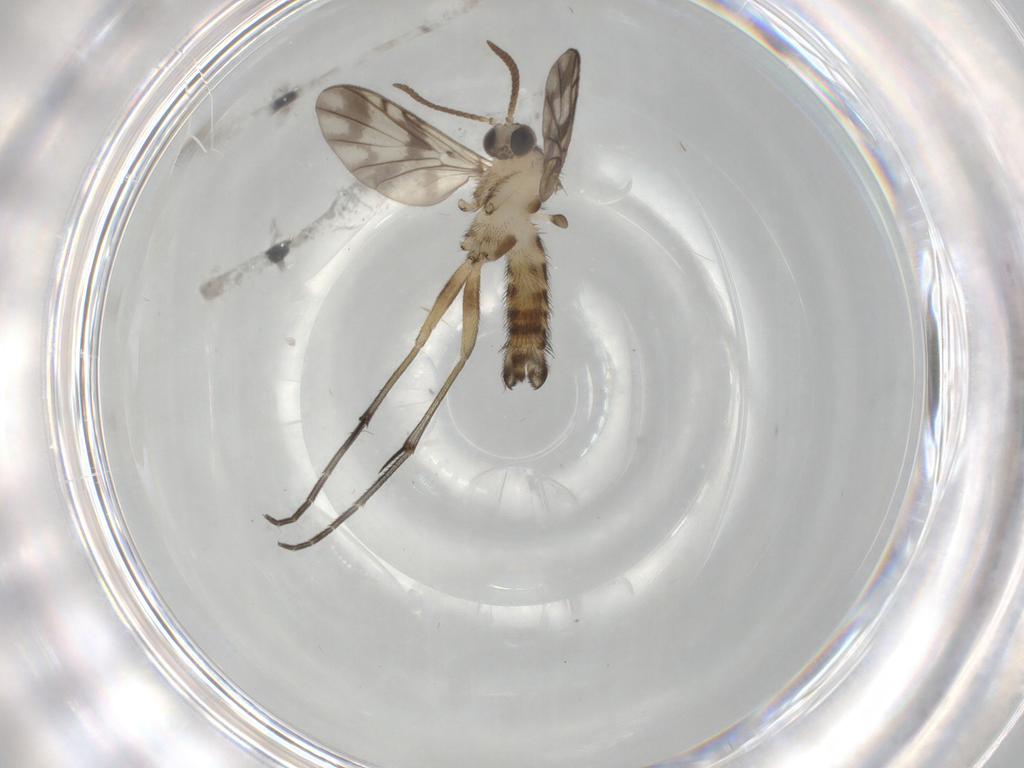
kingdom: Animalia
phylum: Arthropoda
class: Insecta
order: Diptera
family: Keroplatidae
